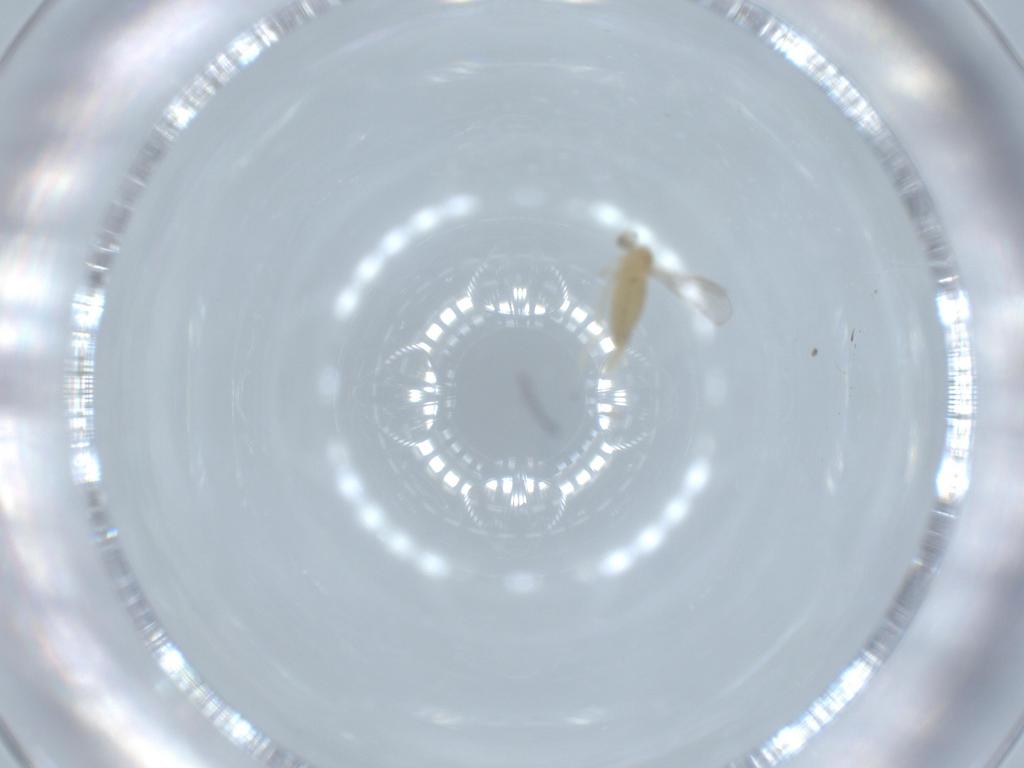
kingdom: Animalia
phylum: Arthropoda
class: Insecta
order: Diptera
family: Cecidomyiidae
